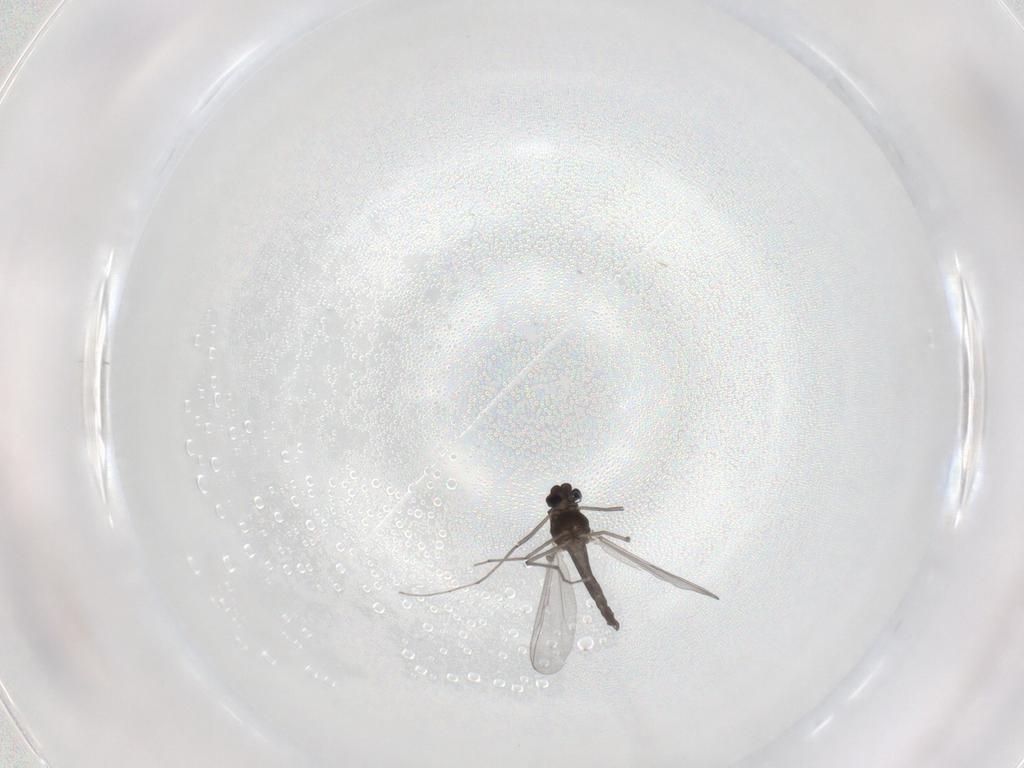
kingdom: Animalia
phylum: Arthropoda
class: Insecta
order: Diptera
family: Chironomidae
